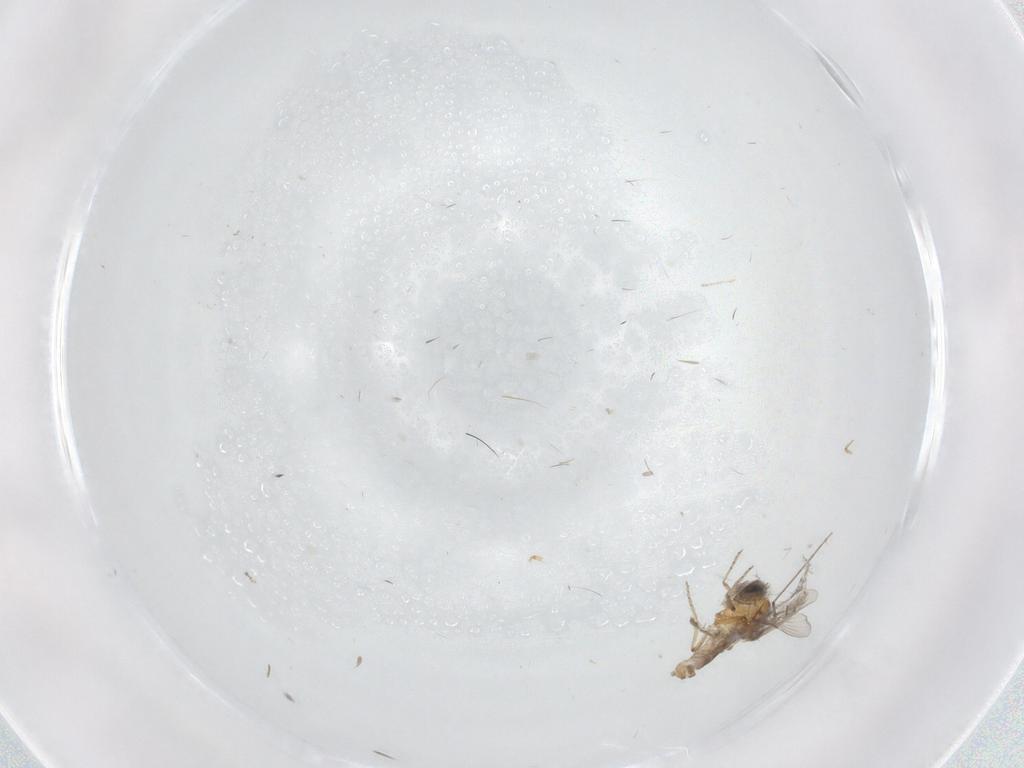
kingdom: Animalia
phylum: Arthropoda
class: Insecta
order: Diptera
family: Ceratopogonidae
